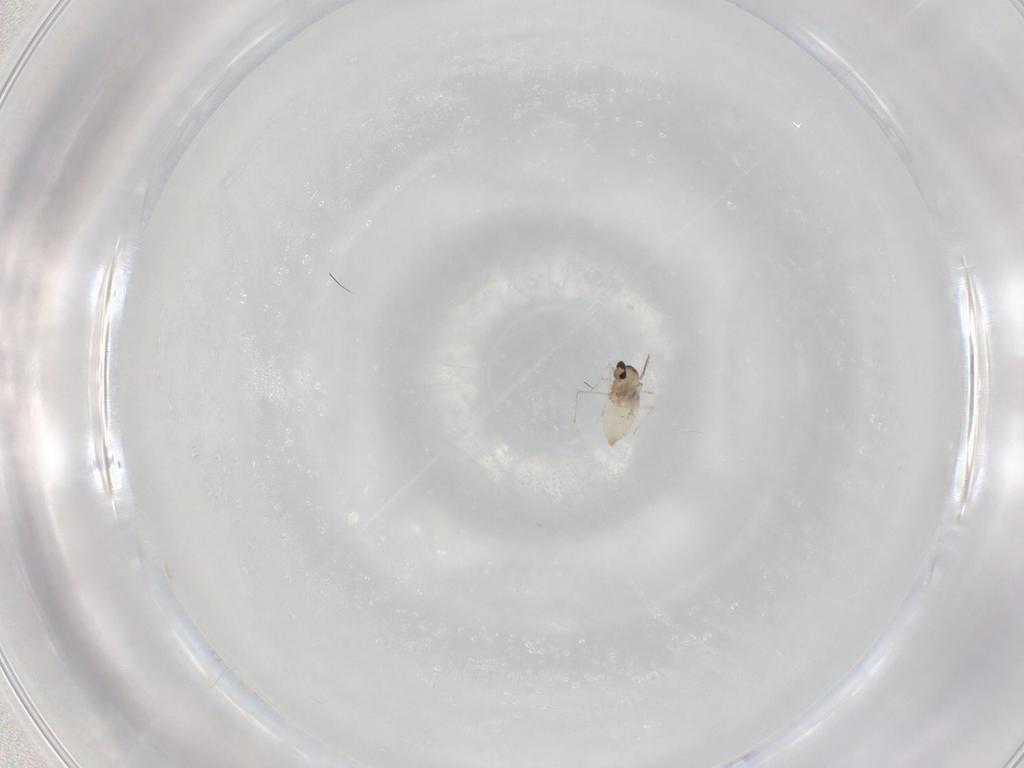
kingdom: Animalia
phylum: Arthropoda
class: Insecta
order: Diptera
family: Cecidomyiidae
